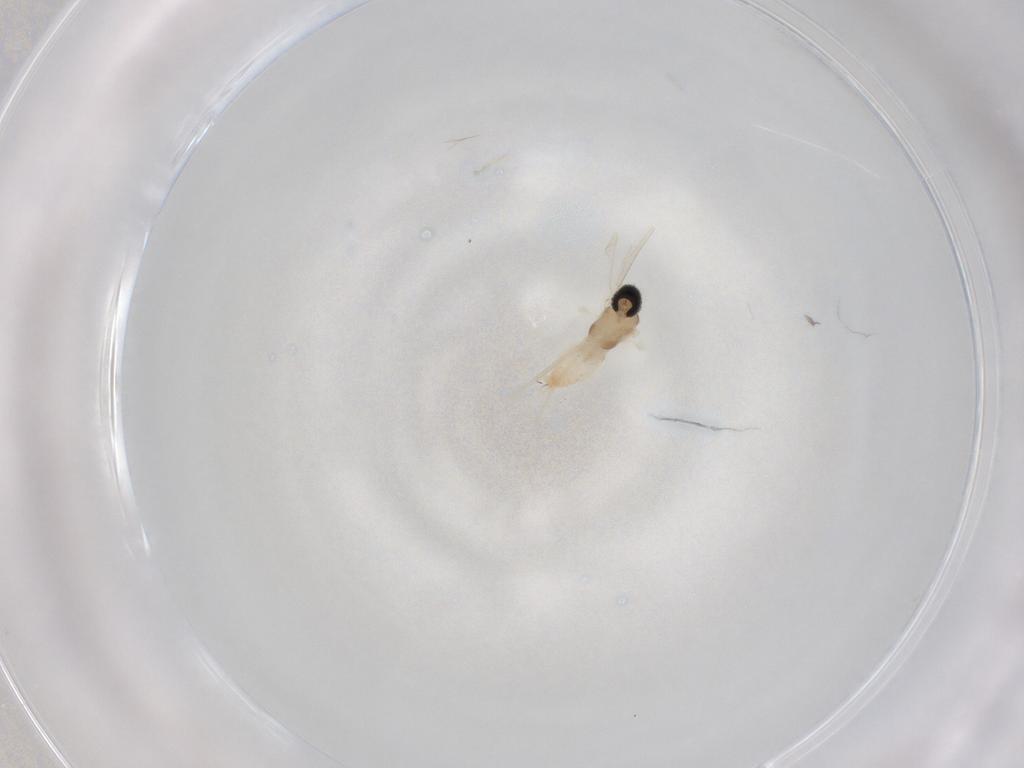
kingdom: Animalia
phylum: Arthropoda
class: Insecta
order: Diptera
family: Cecidomyiidae
